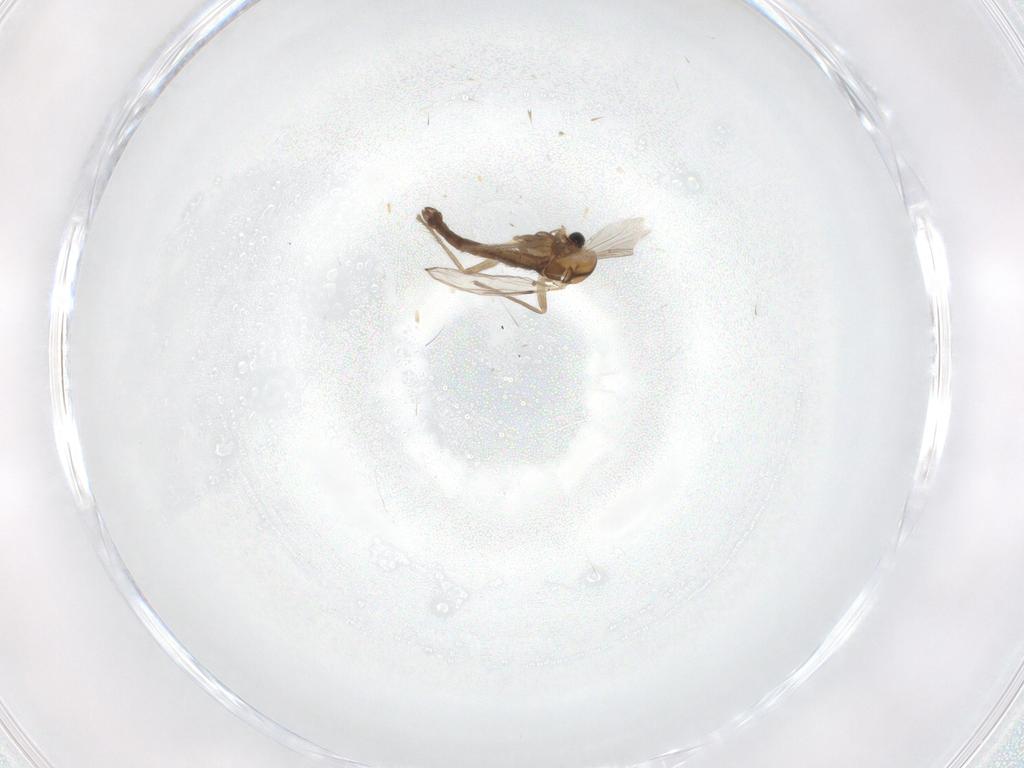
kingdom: Animalia
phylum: Arthropoda
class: Insecta
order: Diptera
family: Chironomidae
